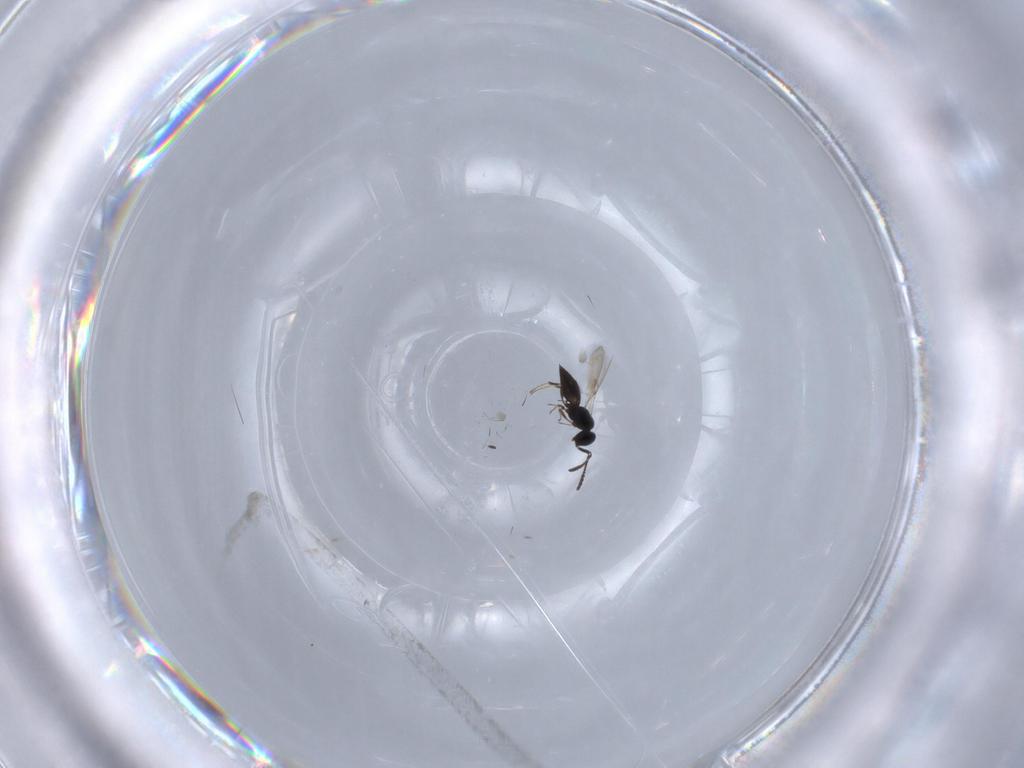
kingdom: Animalia
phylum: Arthropoda
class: Insecta
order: Hymenoptera
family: Scelionidae
